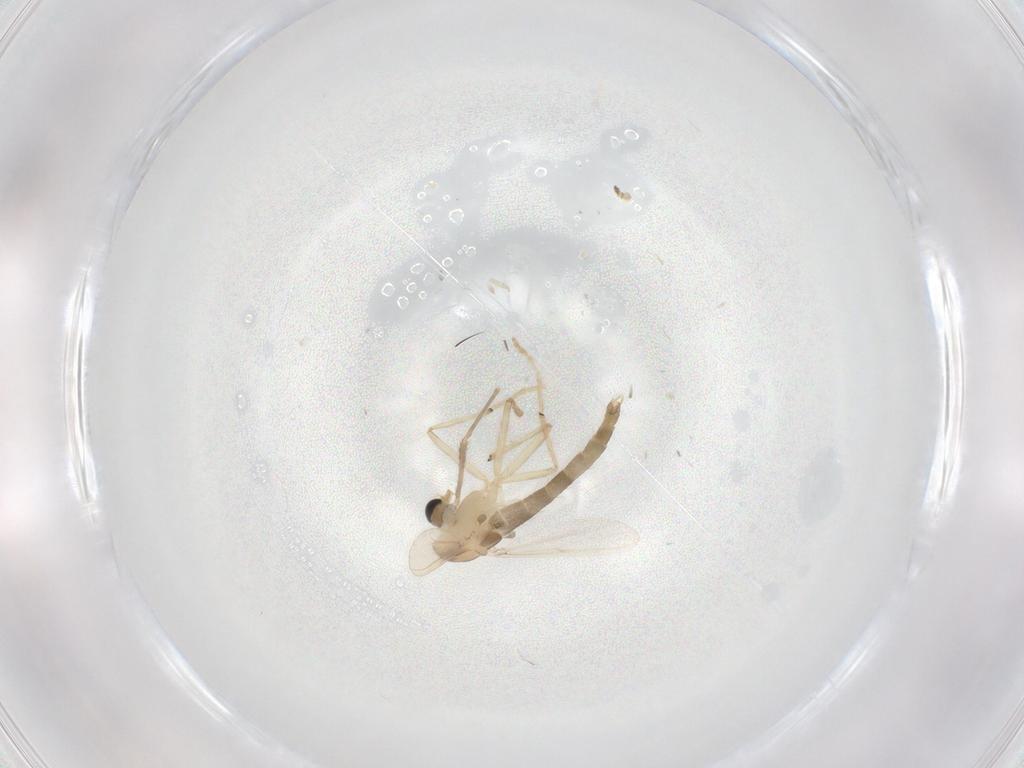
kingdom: Animalia
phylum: Arthropoda
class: Insecta
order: Diptera
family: Chironomidae
